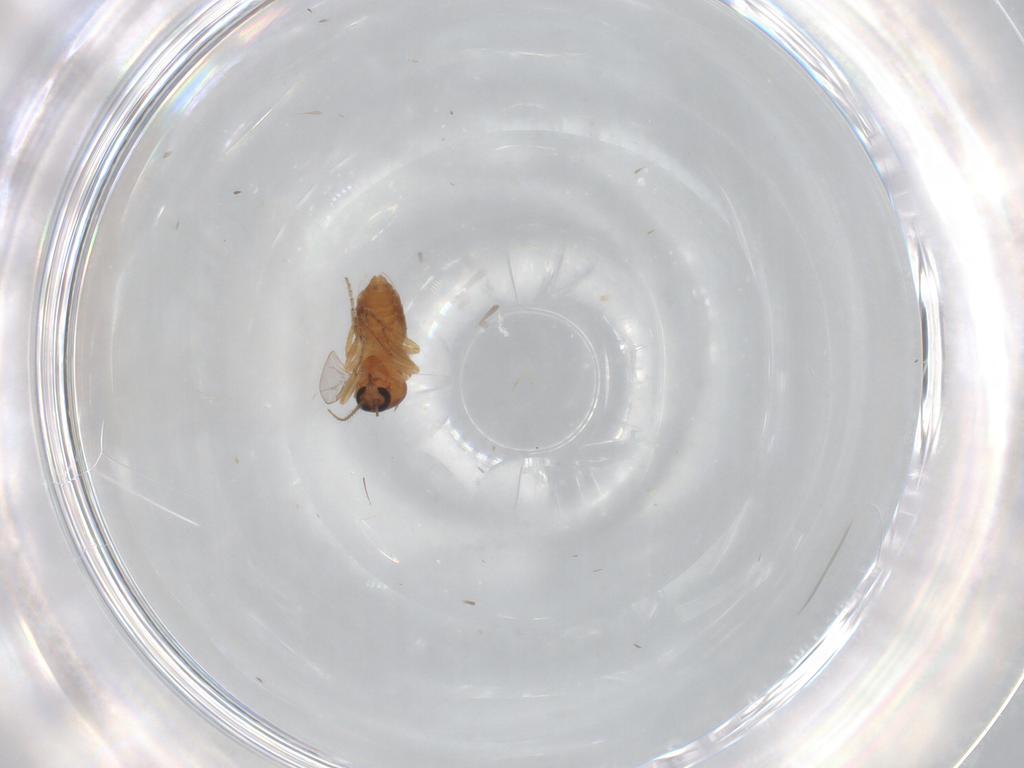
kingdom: Animalia
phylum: Arthropoda
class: Insecta
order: Diptera
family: Ceratopogonidae
